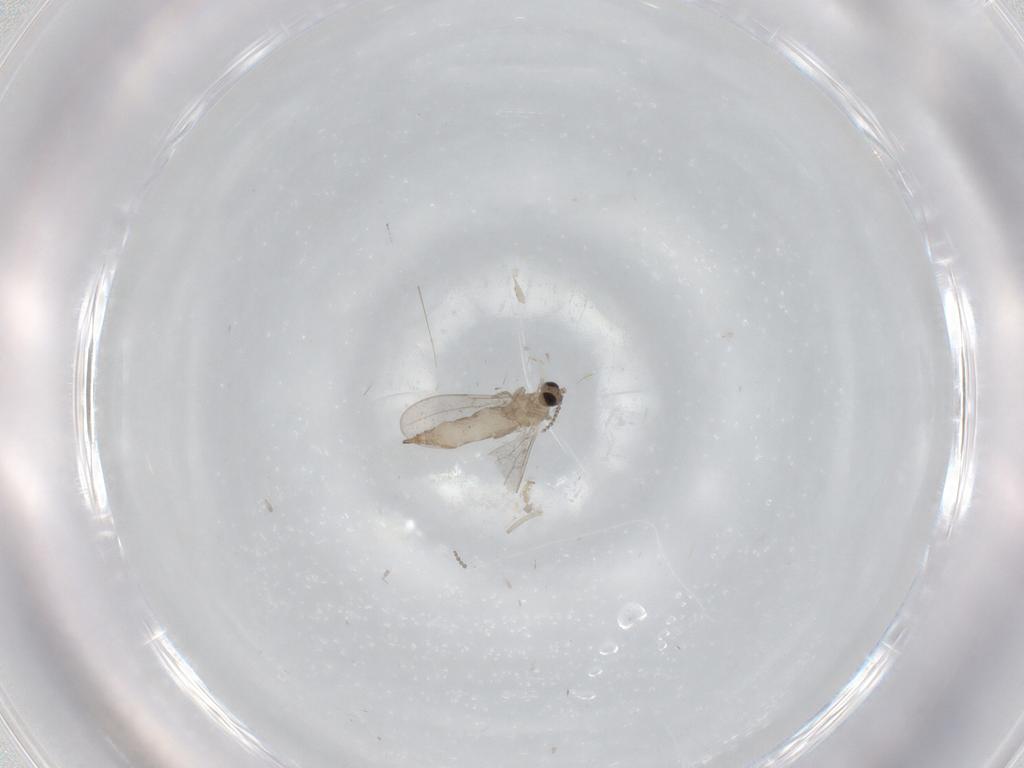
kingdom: Animalia
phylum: Arthropoda
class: Insecta
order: Diptera
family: Cecidomyiidae
